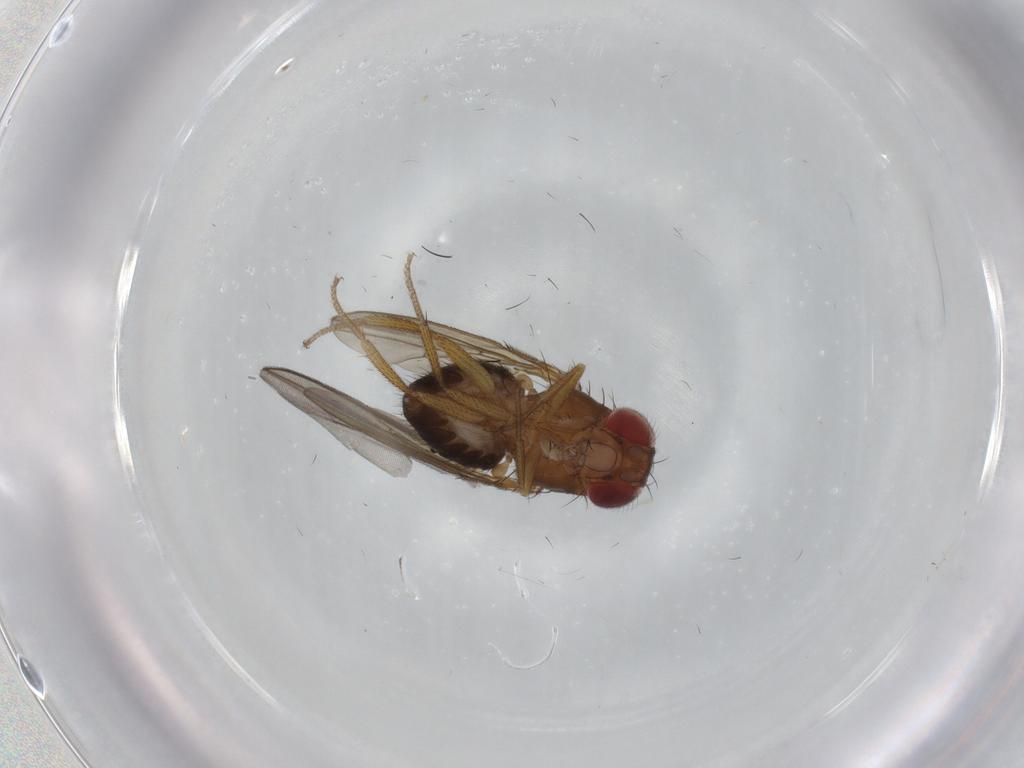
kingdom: Animalia
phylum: Arthropoda
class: Insecta
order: Diptera
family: Drosophilidae
